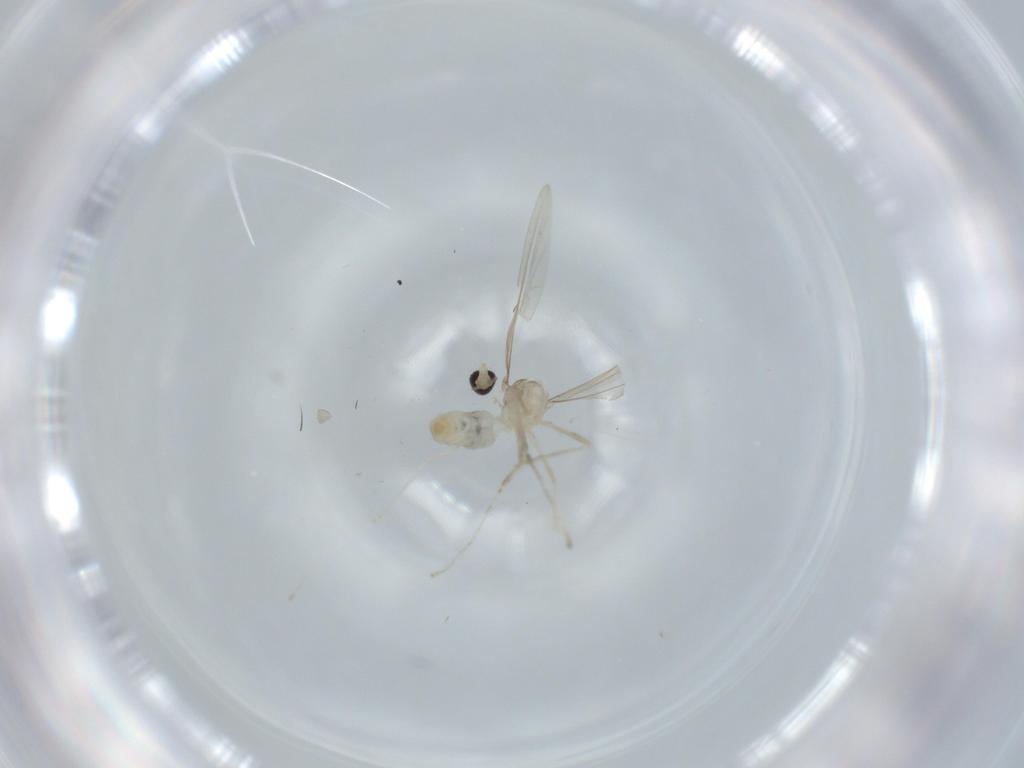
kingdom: Animalia
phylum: Arthropoda
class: Insecta
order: Diptera
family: Cecidomyiidae
